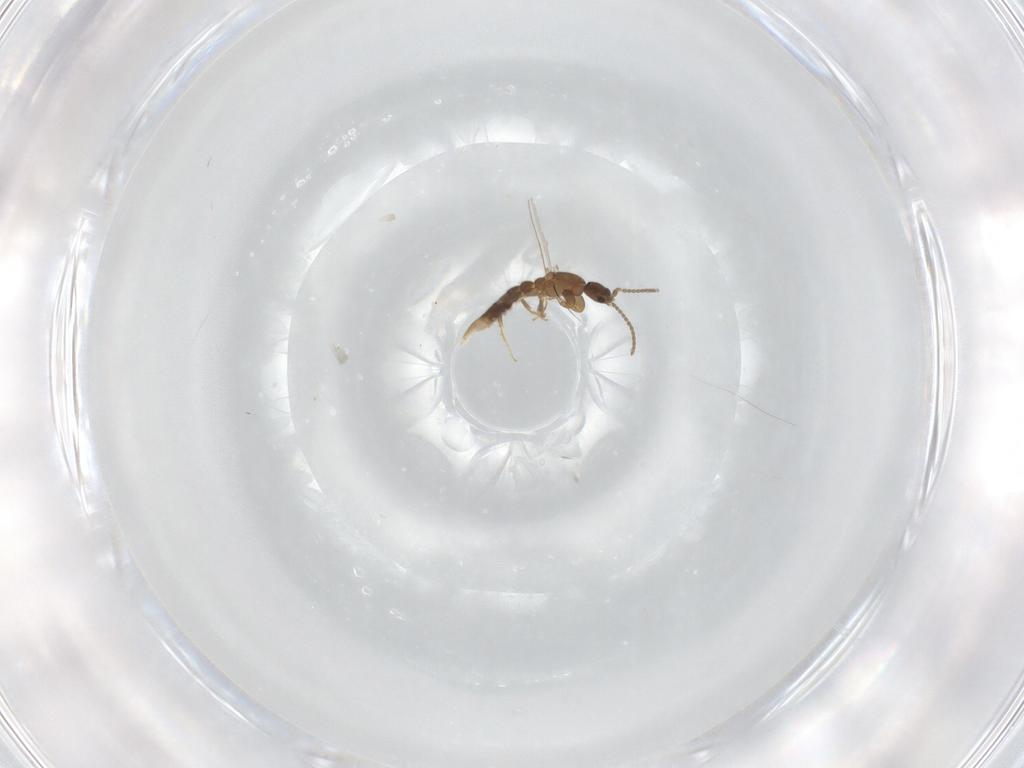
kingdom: Animalia
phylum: Arthropoda
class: Insecta
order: Hymenoptera
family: Formicidae
